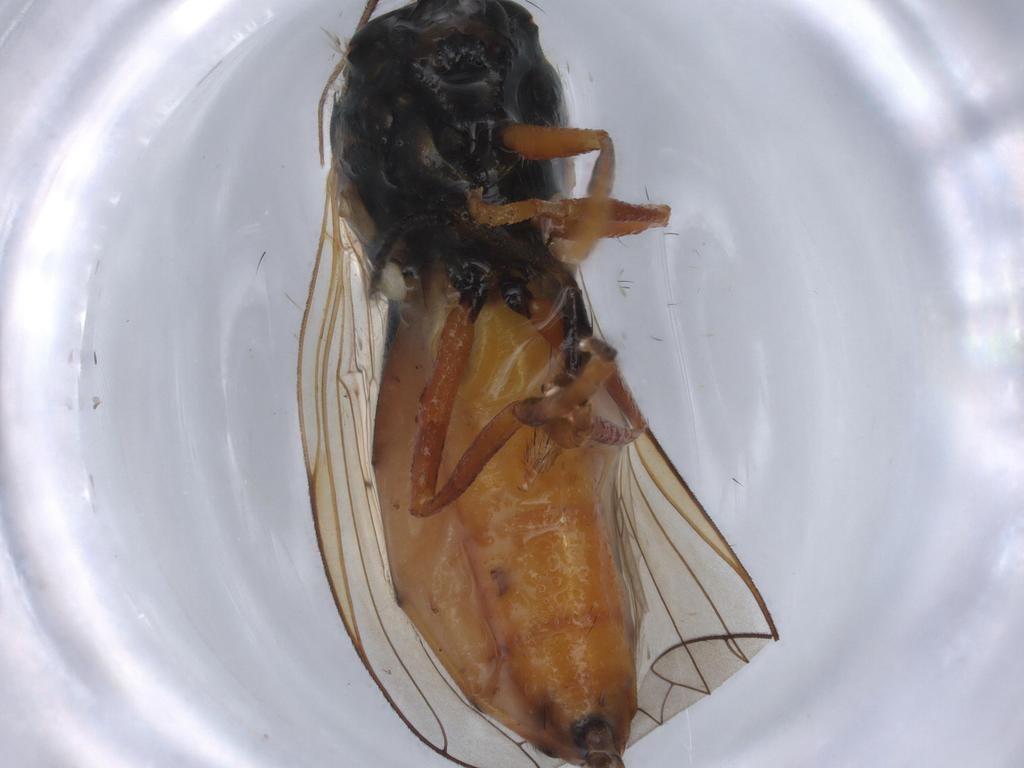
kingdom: Animalia
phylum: Arthropoda
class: Insecta
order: Diptera
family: Syrphidae
